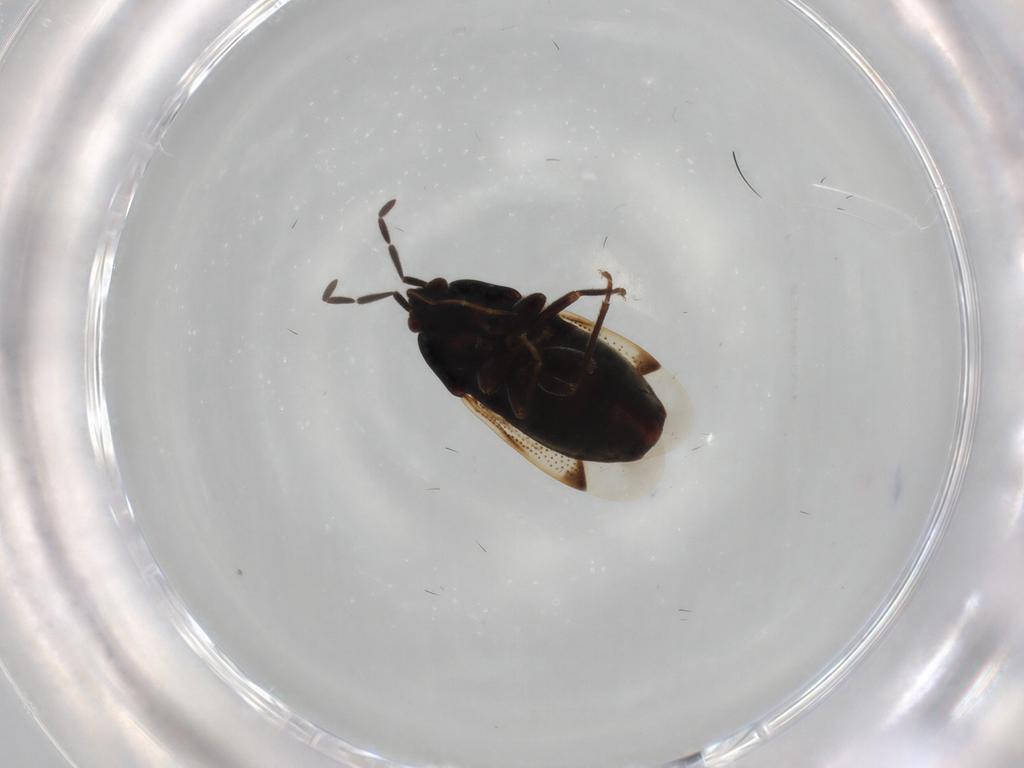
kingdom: Animalia
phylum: Arthropoda
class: Insecta
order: Hemiptera
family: Rhyparochromidae
